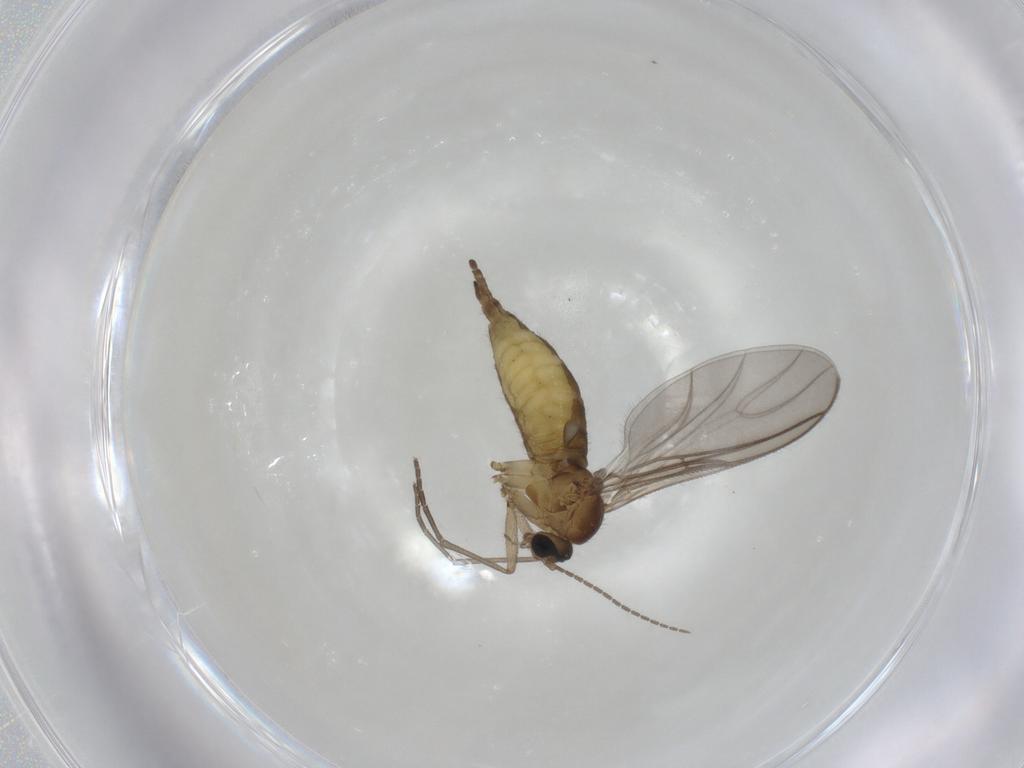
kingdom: Animalia
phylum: Arthropoda
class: Insecta
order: Diptera
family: Sciaridae
